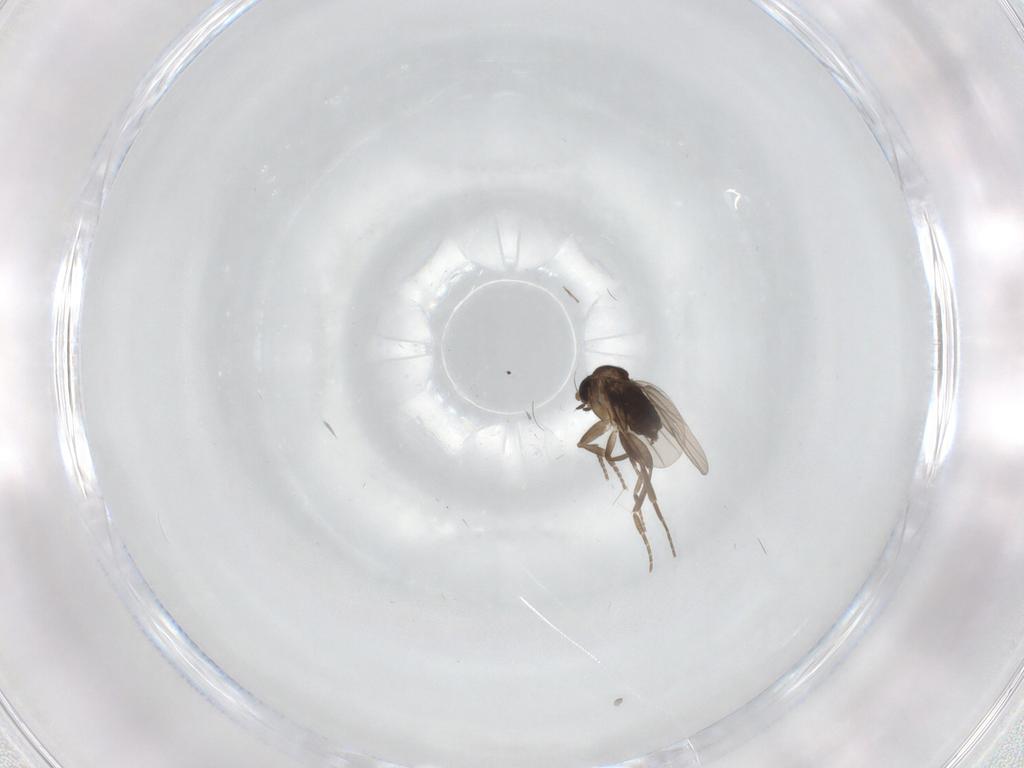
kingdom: Animalia
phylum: Arthropoda
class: Insecta
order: Diptera
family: Phoridae
